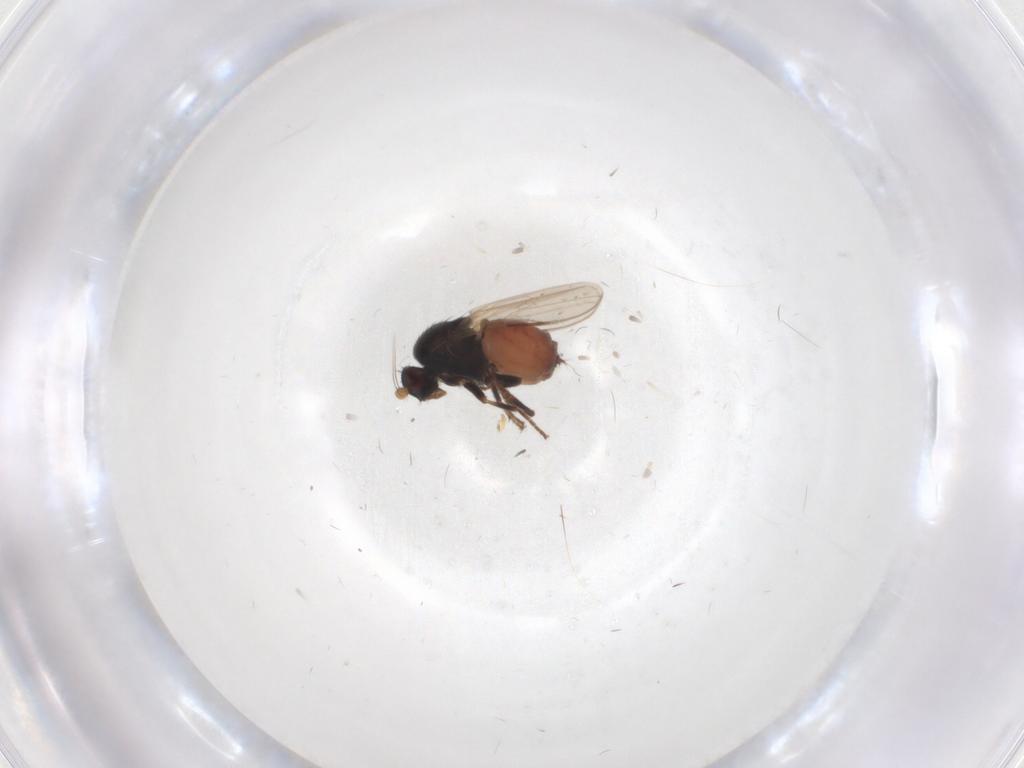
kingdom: Animalia
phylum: Arthropoda
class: Insecta
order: Diptera
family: Sphaeroceridae
